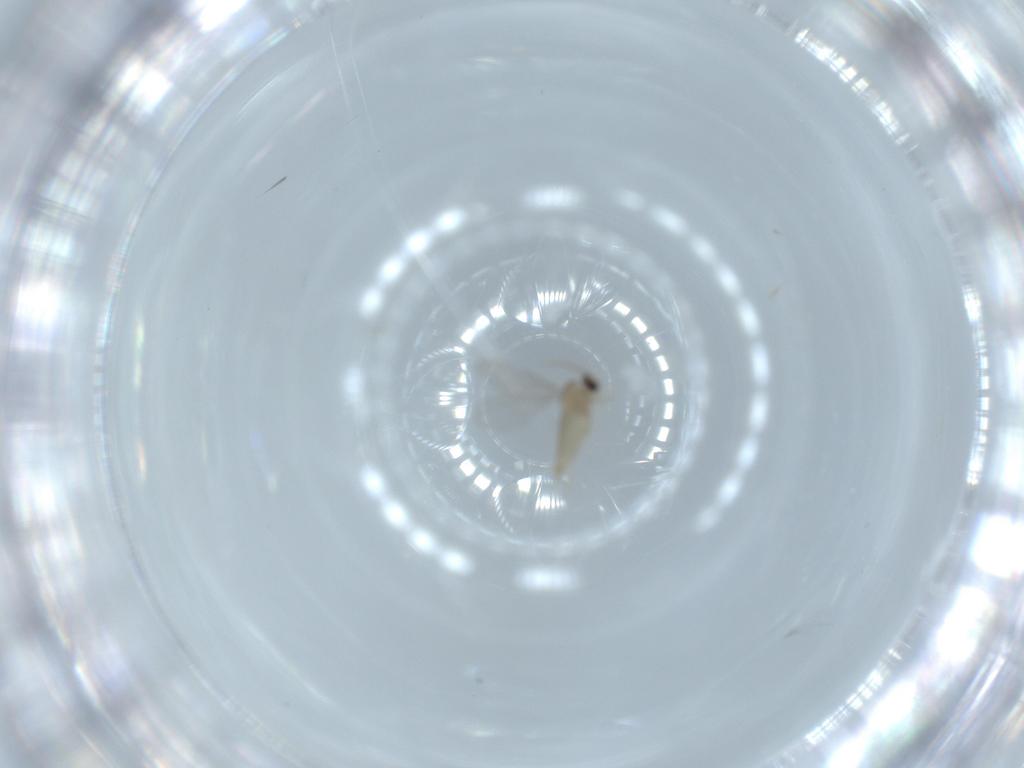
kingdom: Animalia
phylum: Arthropoda
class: Insecta
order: Diptera
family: Cecidomyiidae
